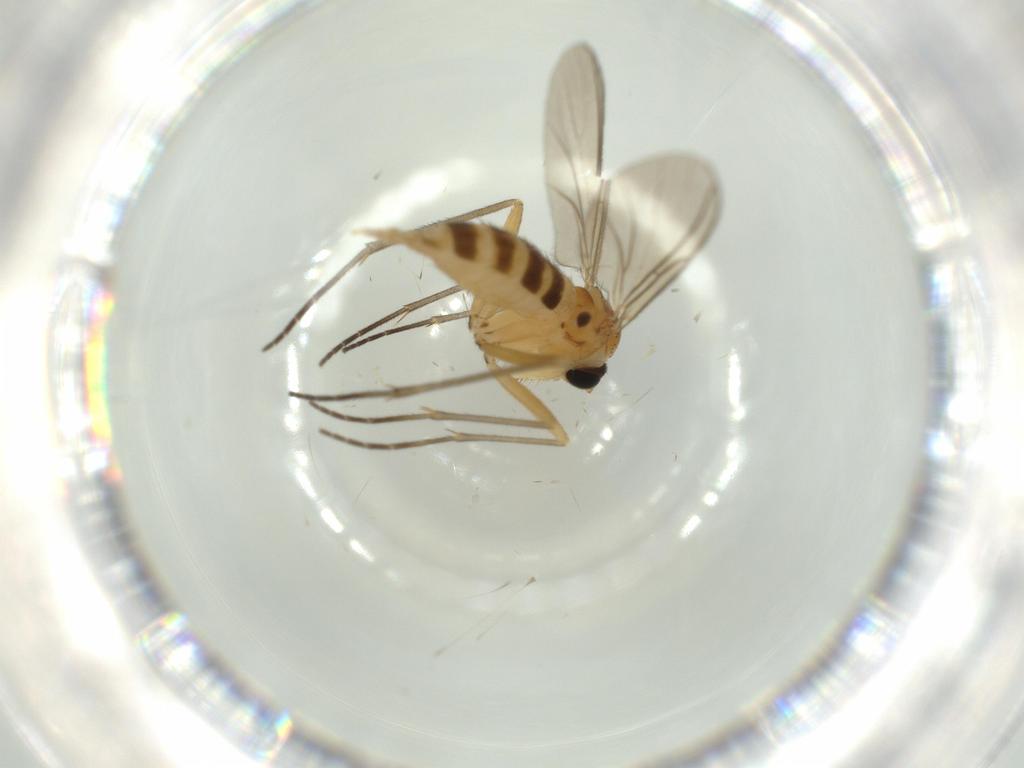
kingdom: Animalia
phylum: Arthropoda
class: Insecta
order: Diptera
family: Sciaridae
